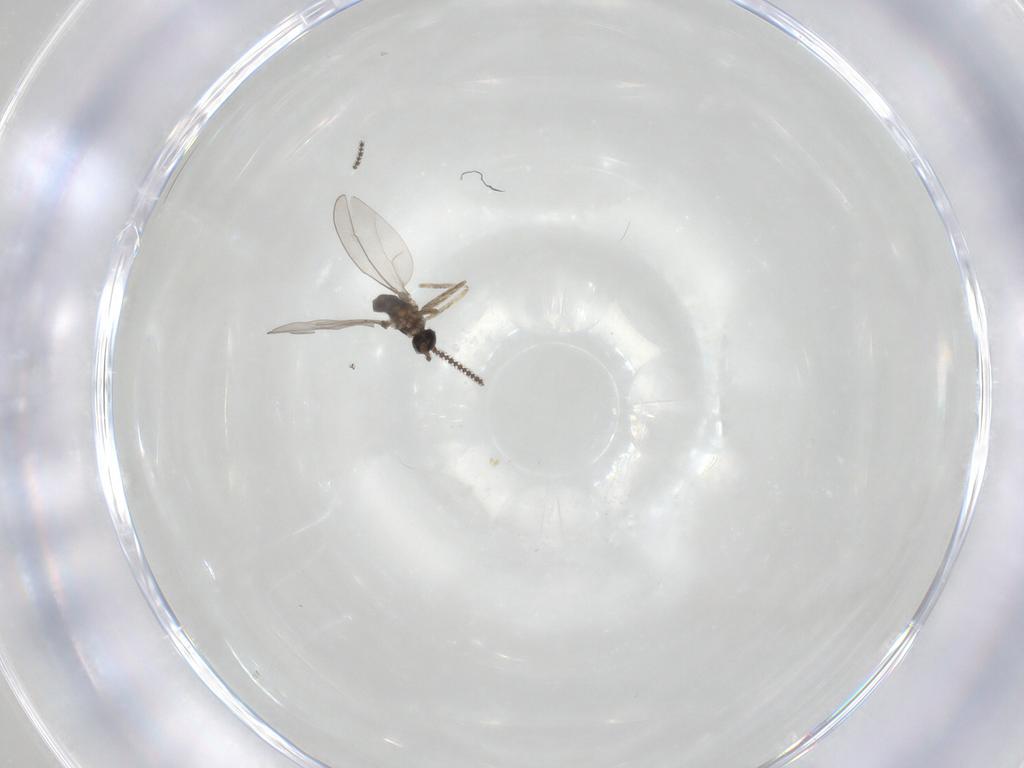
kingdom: Animalia
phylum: Arthropoda
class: Insecta
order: Diptera
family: Cecidomyiidae
